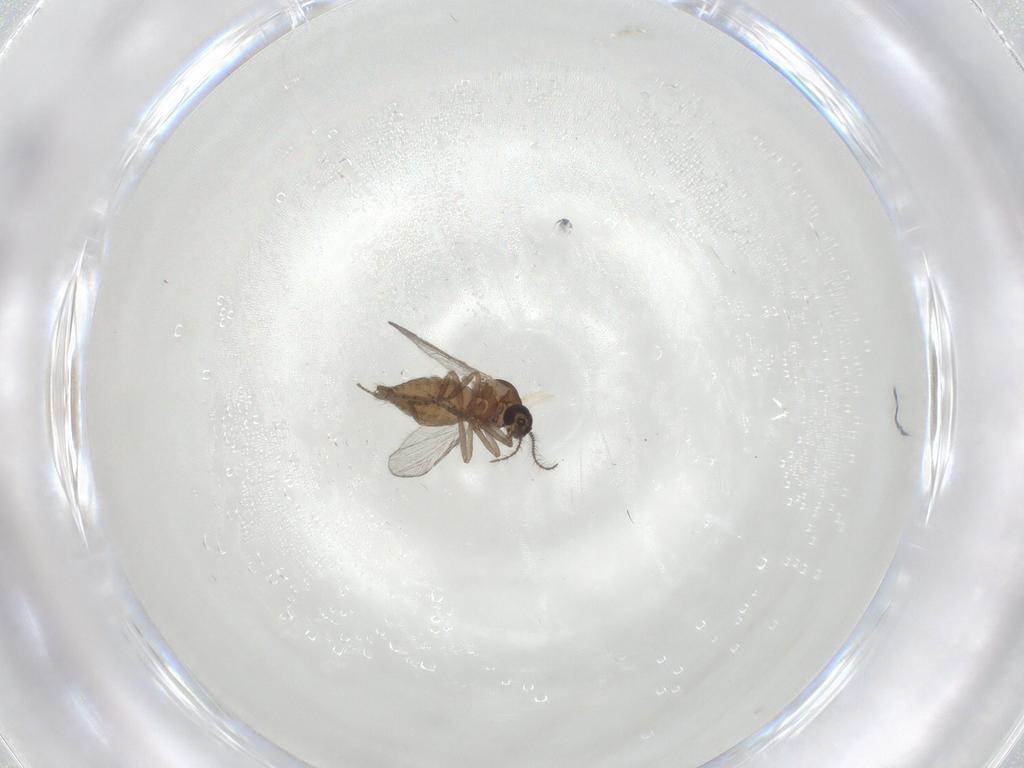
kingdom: Animalia
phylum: Arthropoda
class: Insecta
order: Diptera
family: Ceratopogonidae
